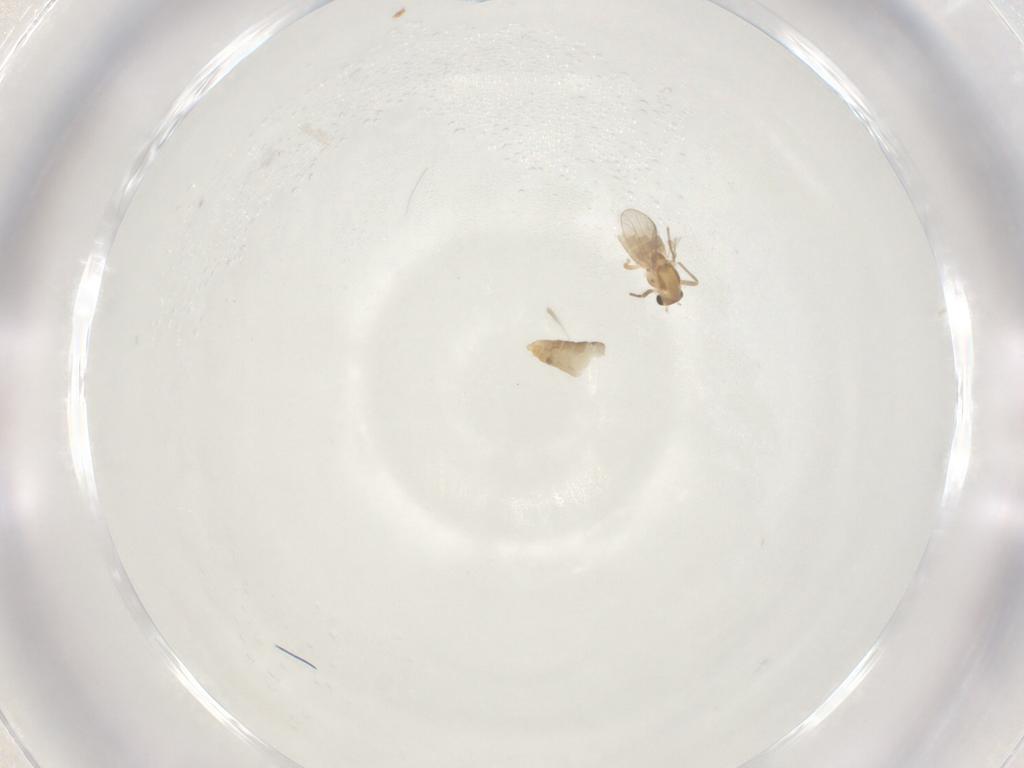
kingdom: Animalia
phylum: Arthropoda
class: Insecta
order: Diptera
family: Chironomidae
